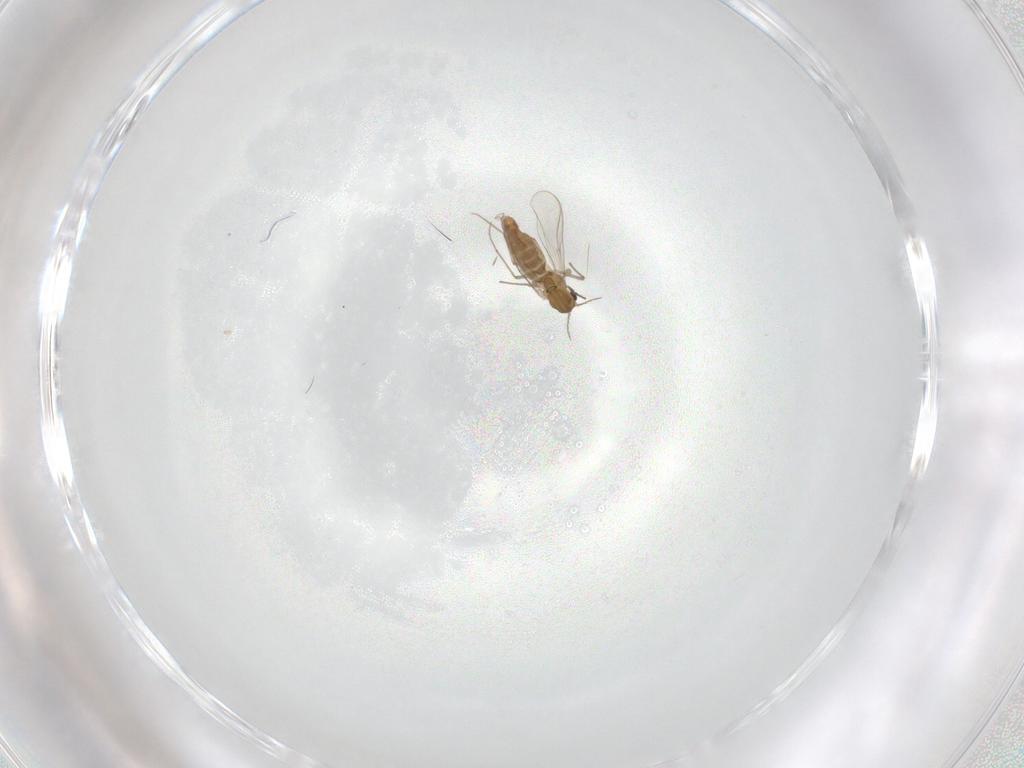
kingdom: Animalia
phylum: Arthropoda
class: Insecta
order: Diptera
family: Chironomidae
